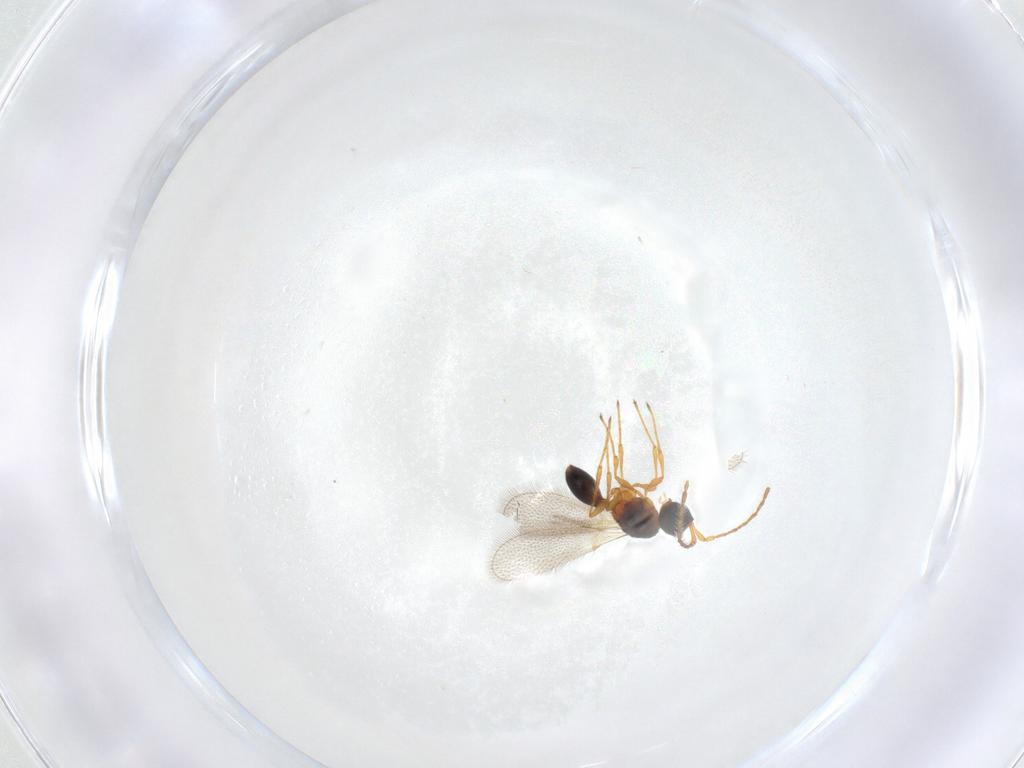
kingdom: Animalia
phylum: Arthropoda
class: Insecta
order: Hymenoptera
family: Diapriidae
